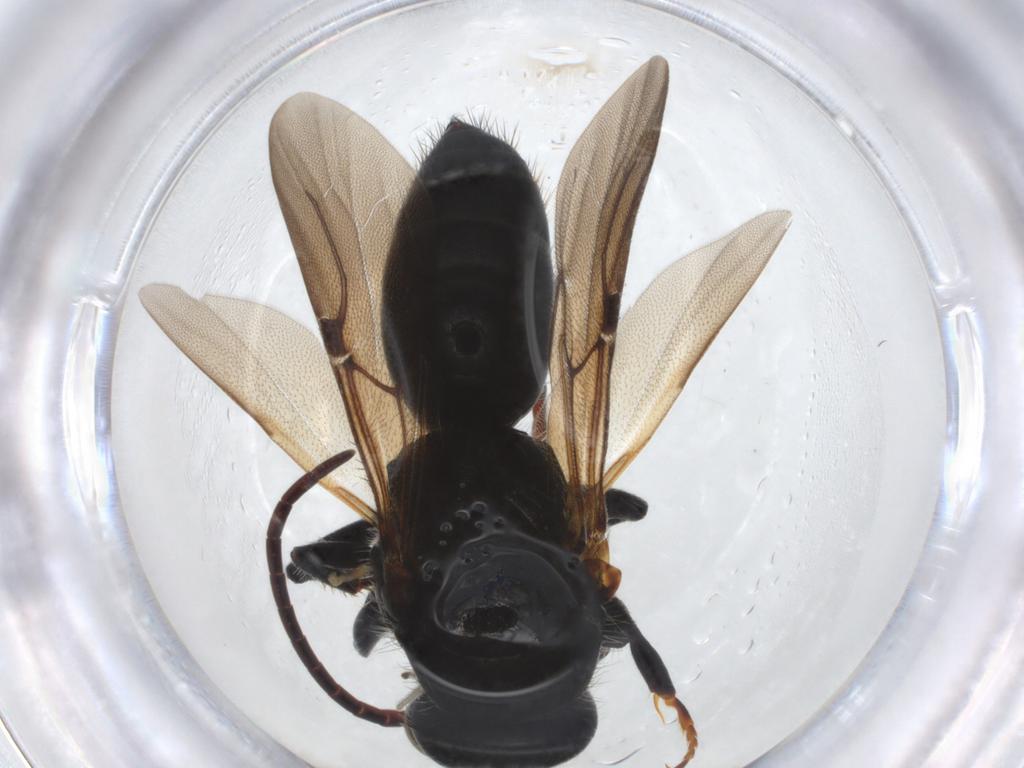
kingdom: Animalia
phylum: Arthropoda
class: Insecta
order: Hymenoptera
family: Bethylidae
